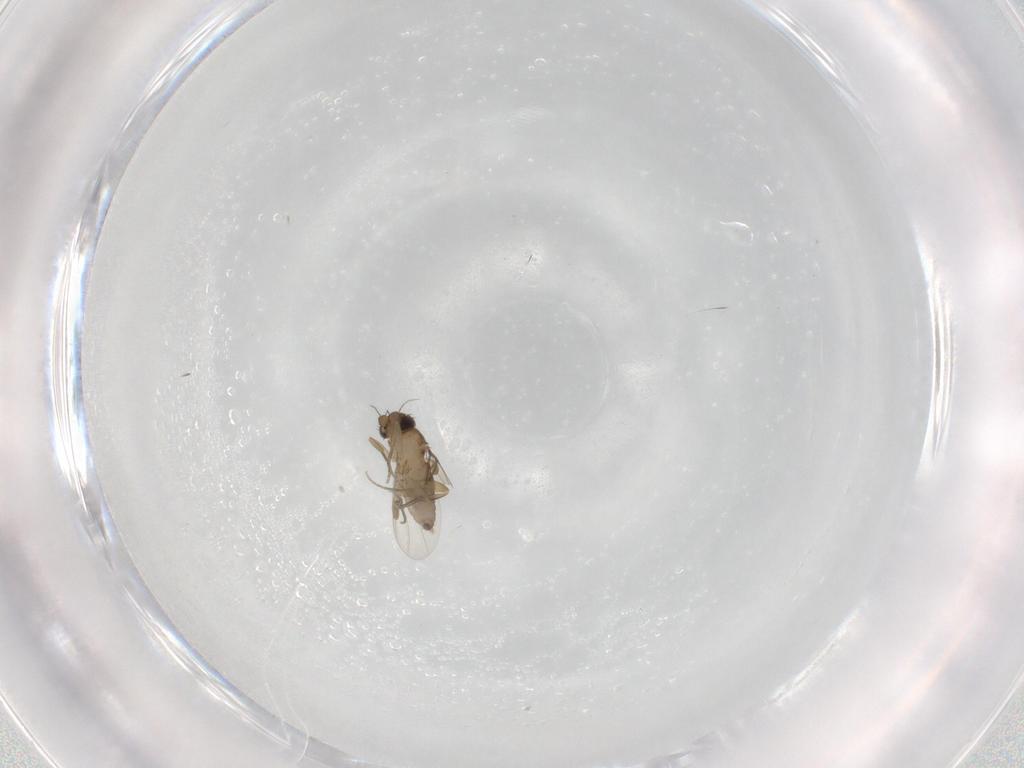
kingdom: Animalia
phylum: Arthropoda
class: Insecta
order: Diptera
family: Phoridae
